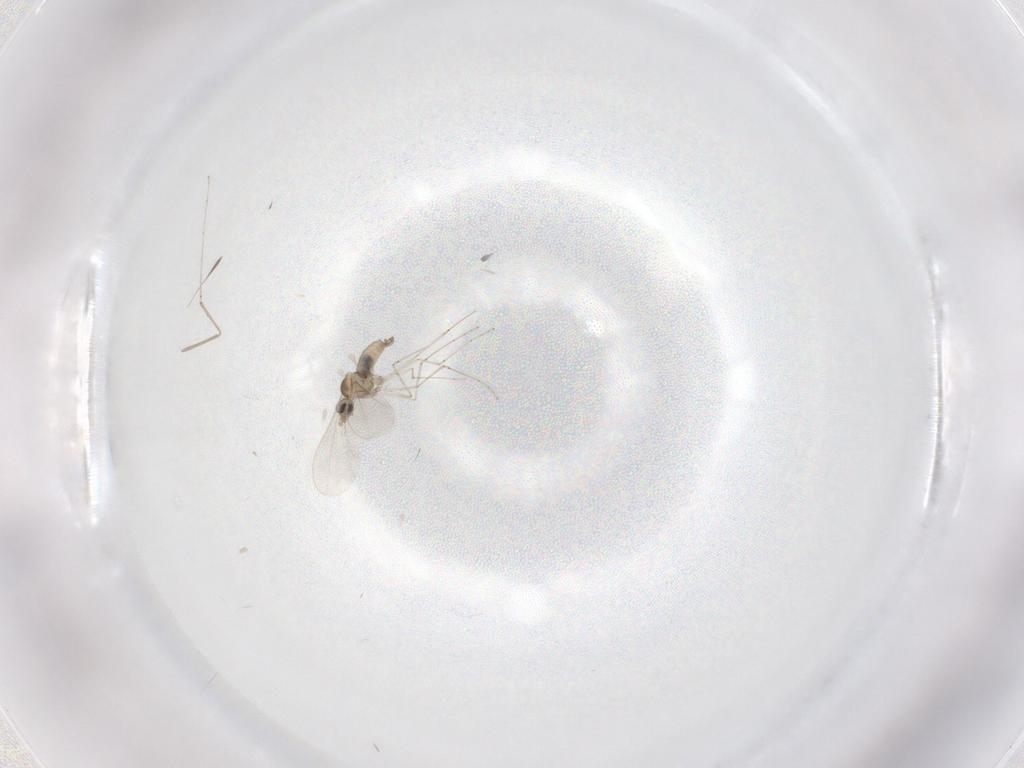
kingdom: Animalia
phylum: Arthropoda
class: Insecta
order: Diptera
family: Cecidomyiidae
